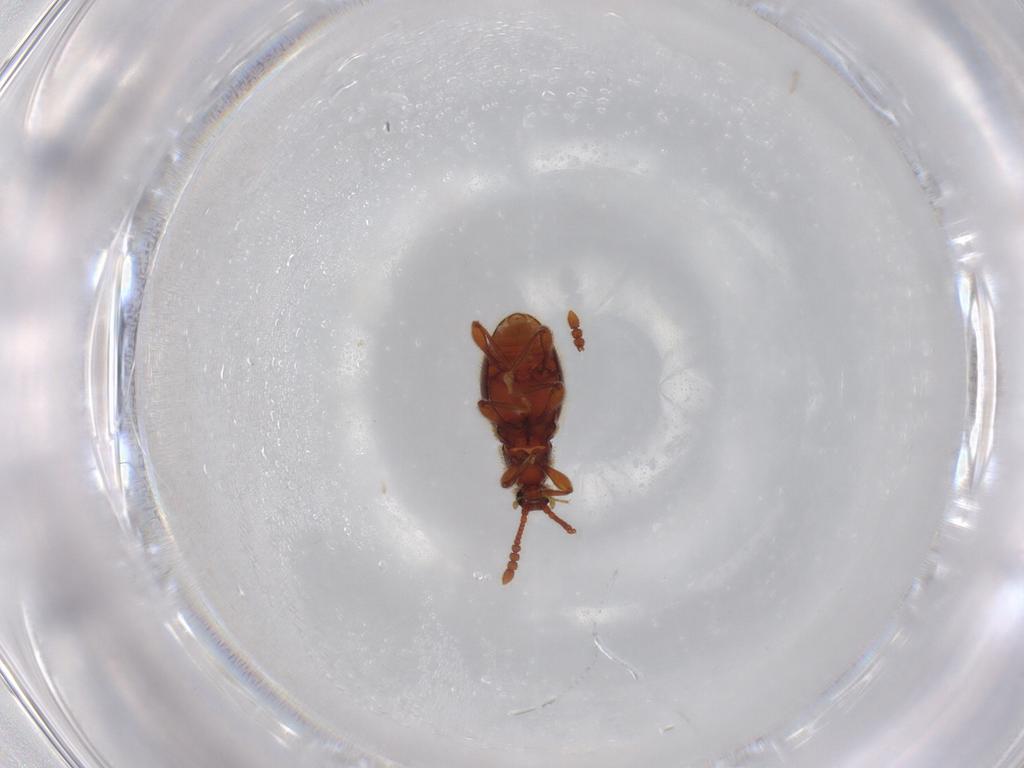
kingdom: Animalia
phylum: Arthropoda
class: Insecta
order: Coleoptera
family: Staphylinidae
